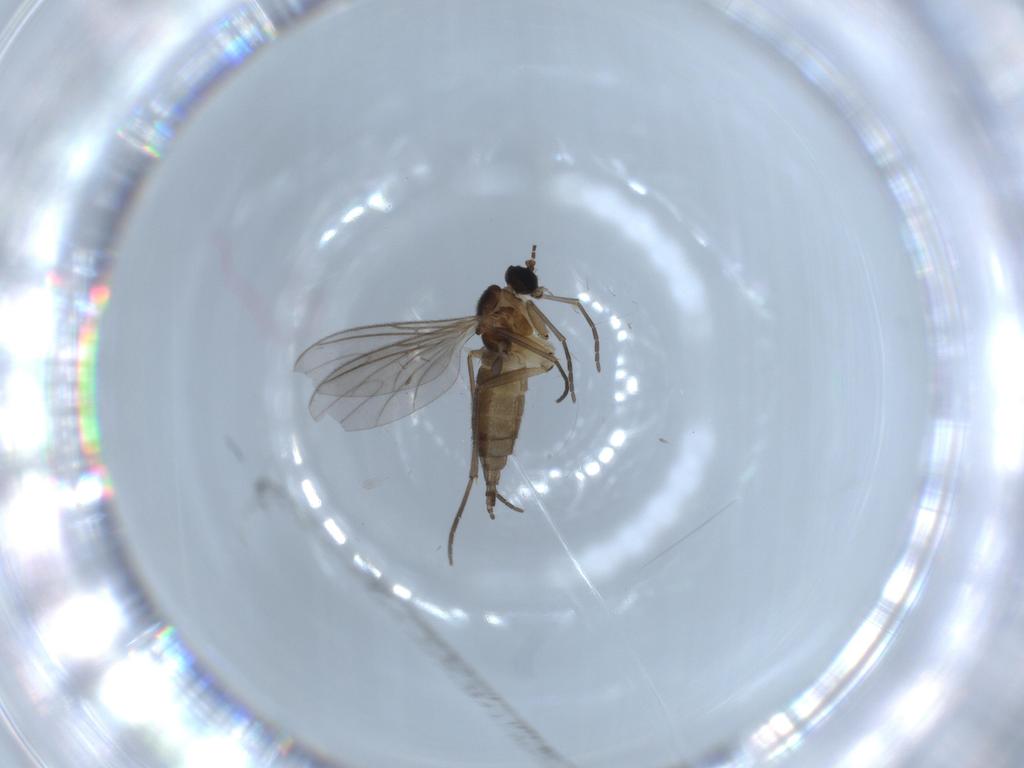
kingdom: Animalia
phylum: Arthropoda
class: Insecta
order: Diptera
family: Sciaridae
